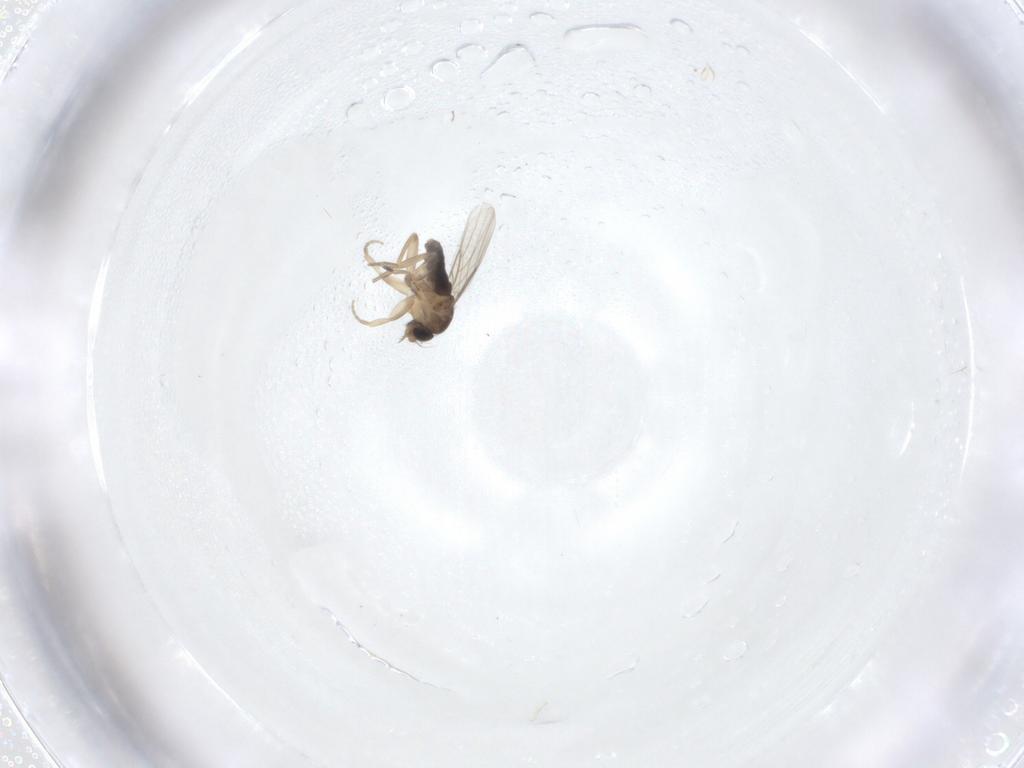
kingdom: Animalia
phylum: Arthropoda
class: Insecta
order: Diptera
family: Phoridae
